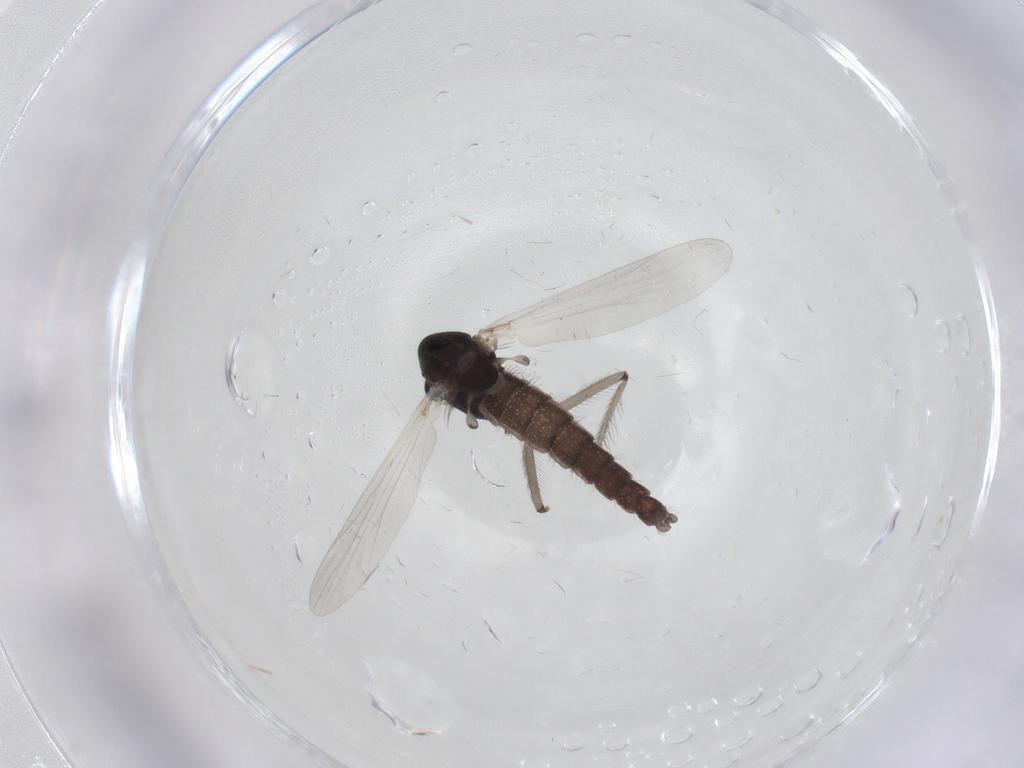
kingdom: Animalia
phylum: Arthropoda
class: Insecta
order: Diptera
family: Chironomidae
